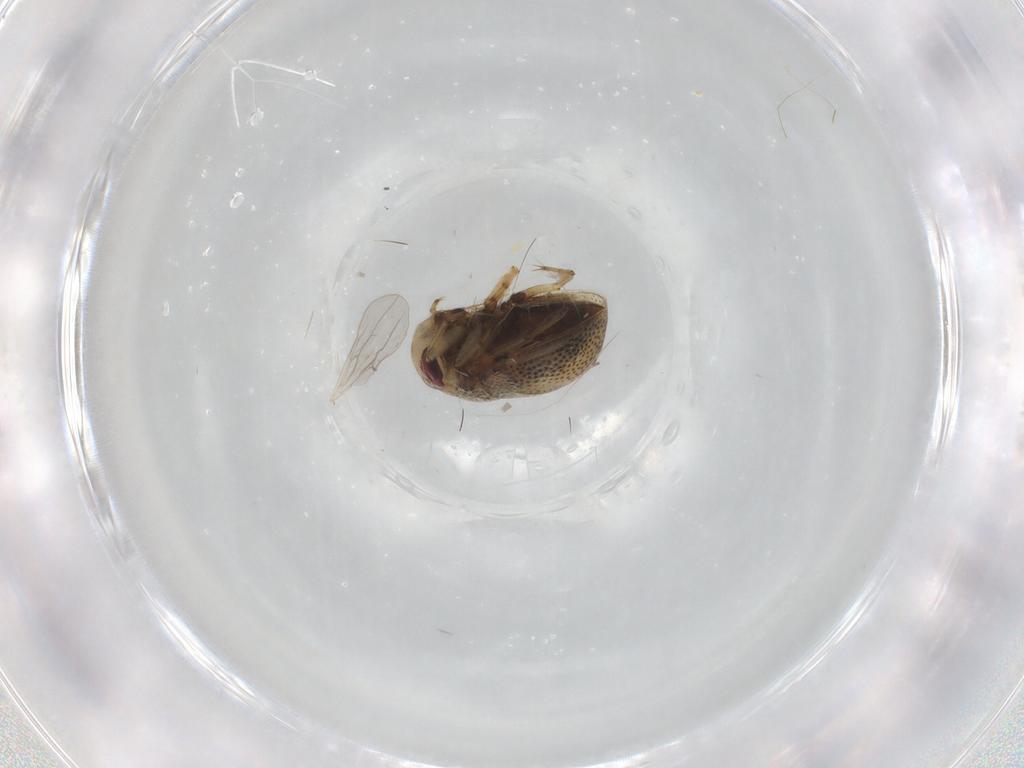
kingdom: Animalia
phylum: Arthropoda
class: Insecta
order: Hemiptera
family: Pleidae
